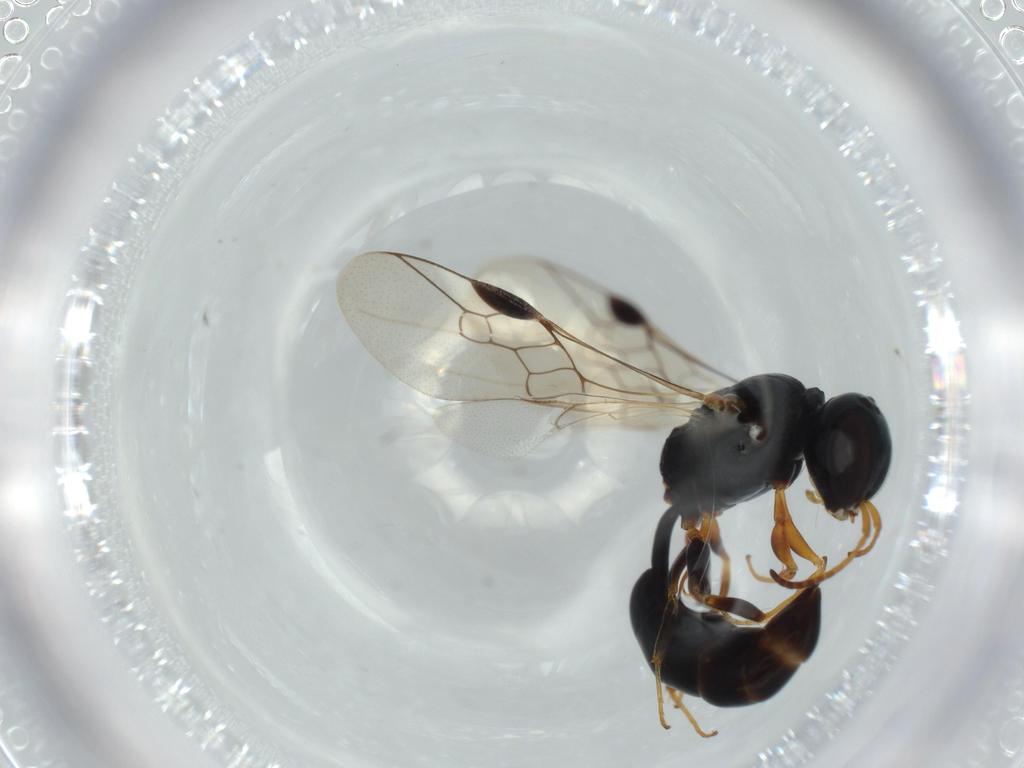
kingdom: Animalia
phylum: Arthropoda
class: Insecta
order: Hymenoptera
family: Crabronidae
